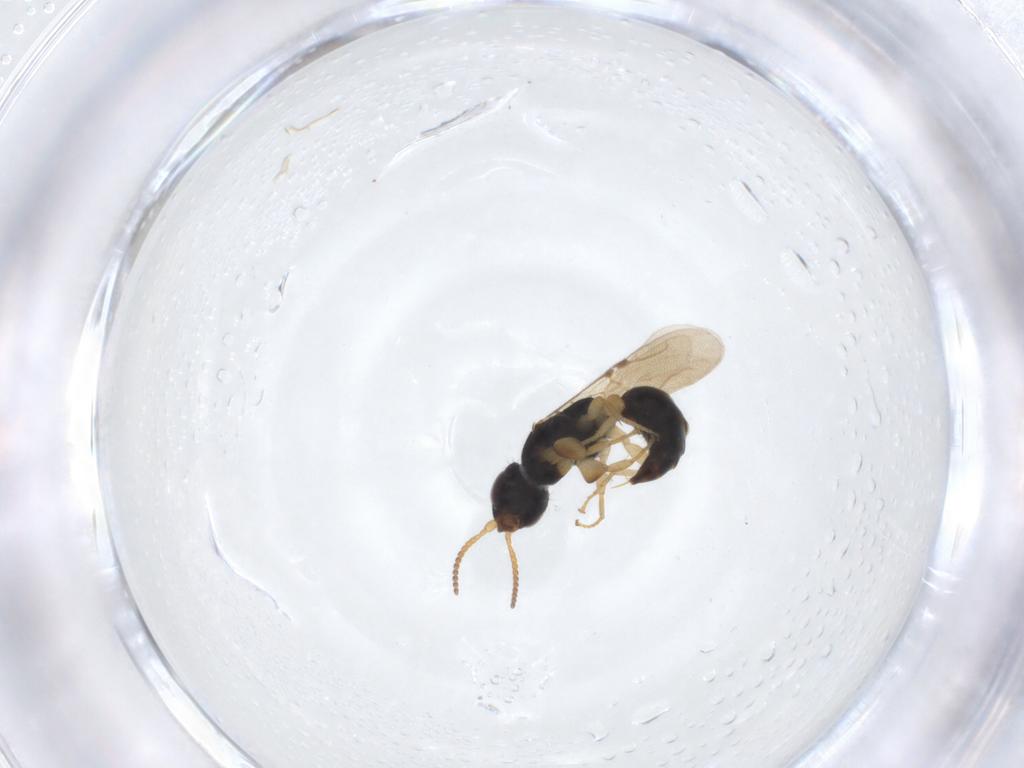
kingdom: Animalia
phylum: Arthropoda
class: Insecta
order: Hymenoptera
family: Bethylidae
